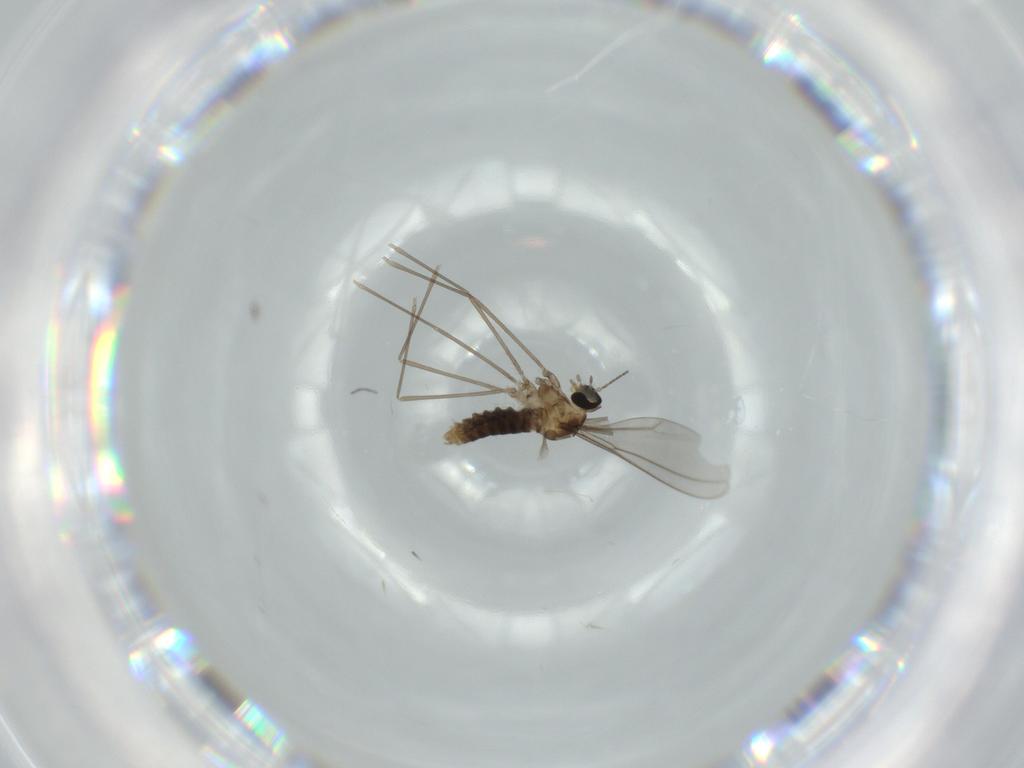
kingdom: Animalia
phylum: Arthropoda
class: Insecta
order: Diptera
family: Cecidomyiidae
